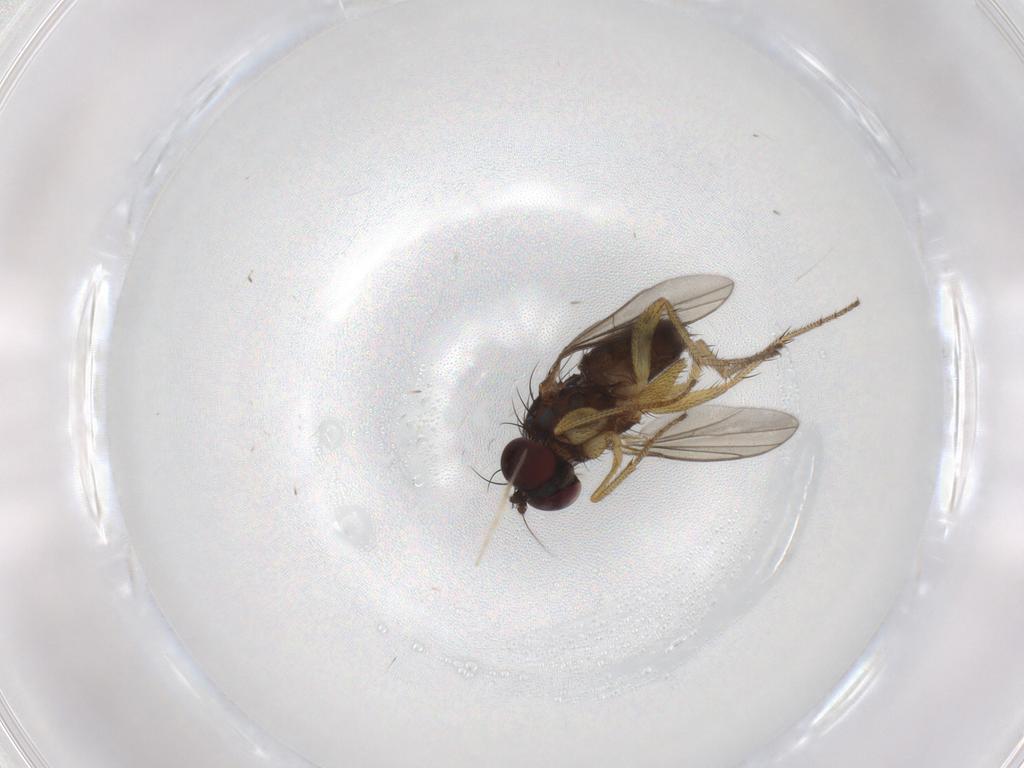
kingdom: Animalia
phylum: Arthropoda
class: Insecta
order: Diptera
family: Chironomidae
